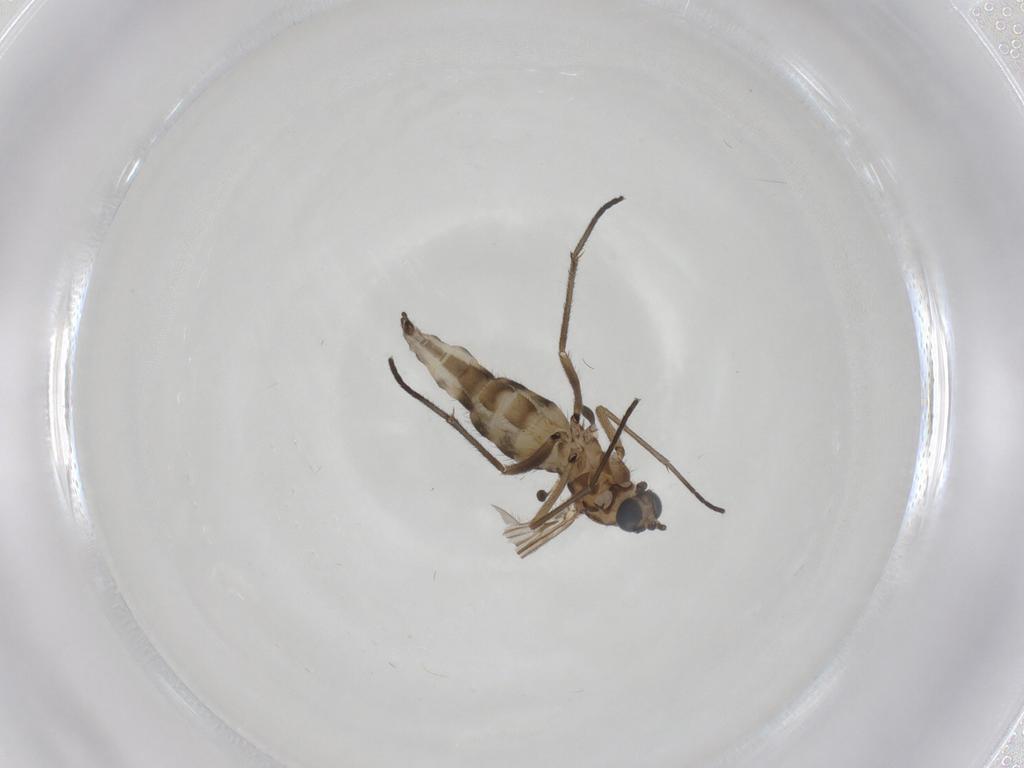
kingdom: Animalia
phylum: Arthropoda
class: Insecta
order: Diptera
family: Sciaridae
